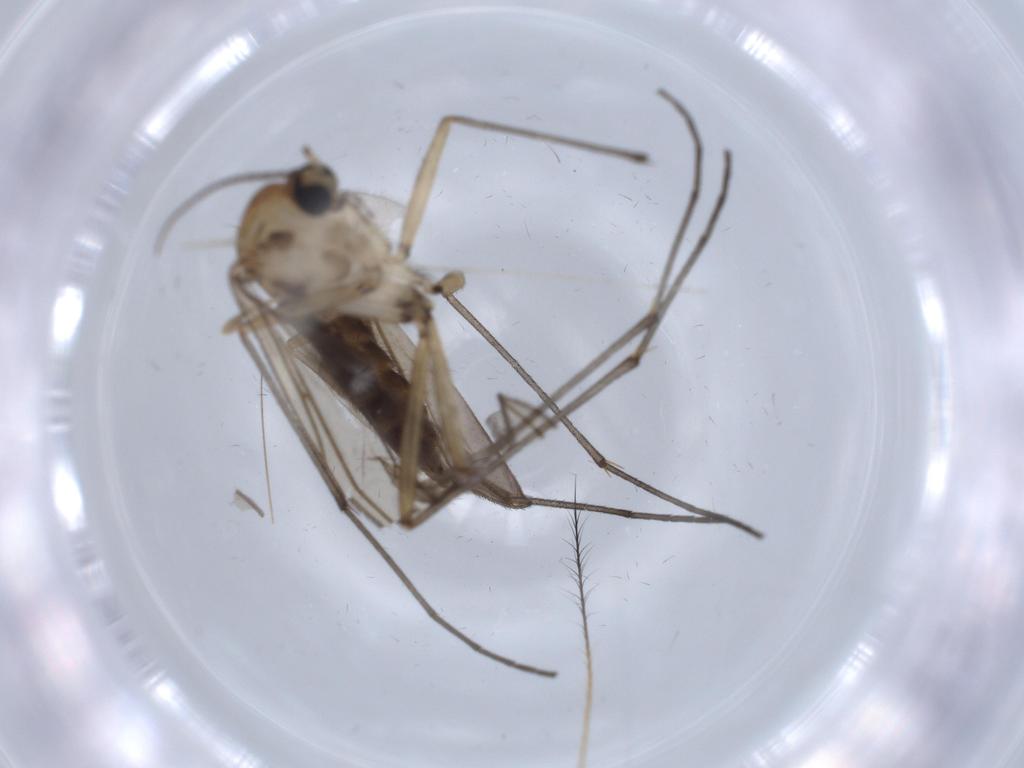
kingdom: Animalia
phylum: Arthropoda
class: Insecta
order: Diptera
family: Sciaridae
